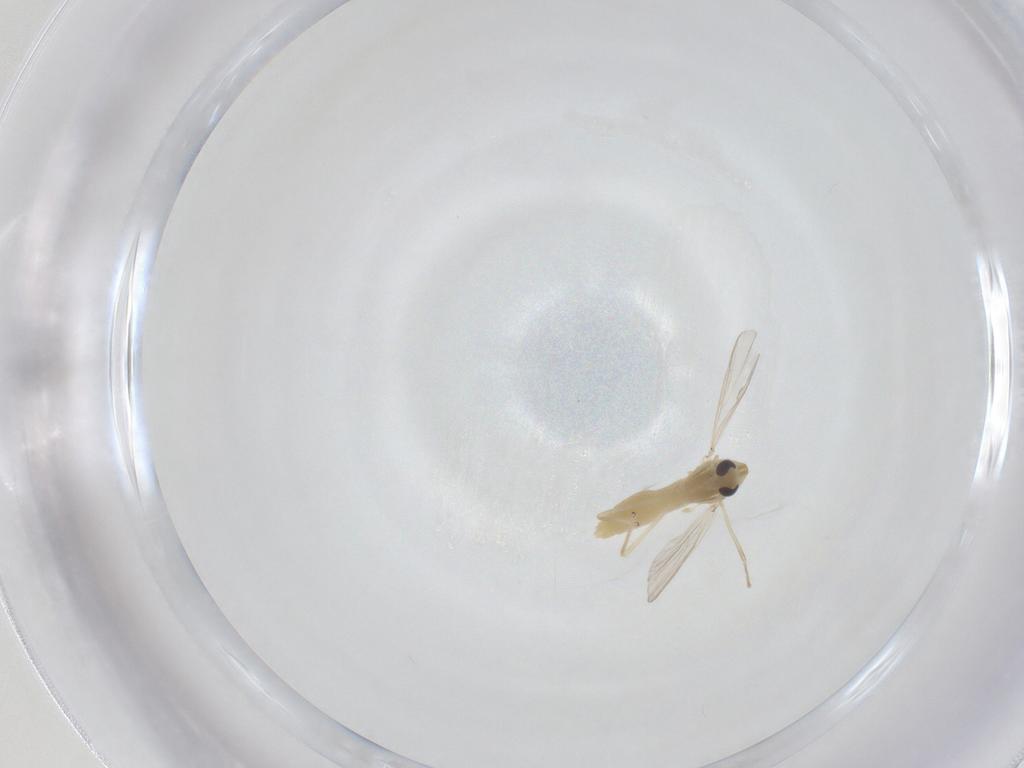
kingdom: Animalia
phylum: Arthropoda
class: Insecta
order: Diptera
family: Chironomidae
